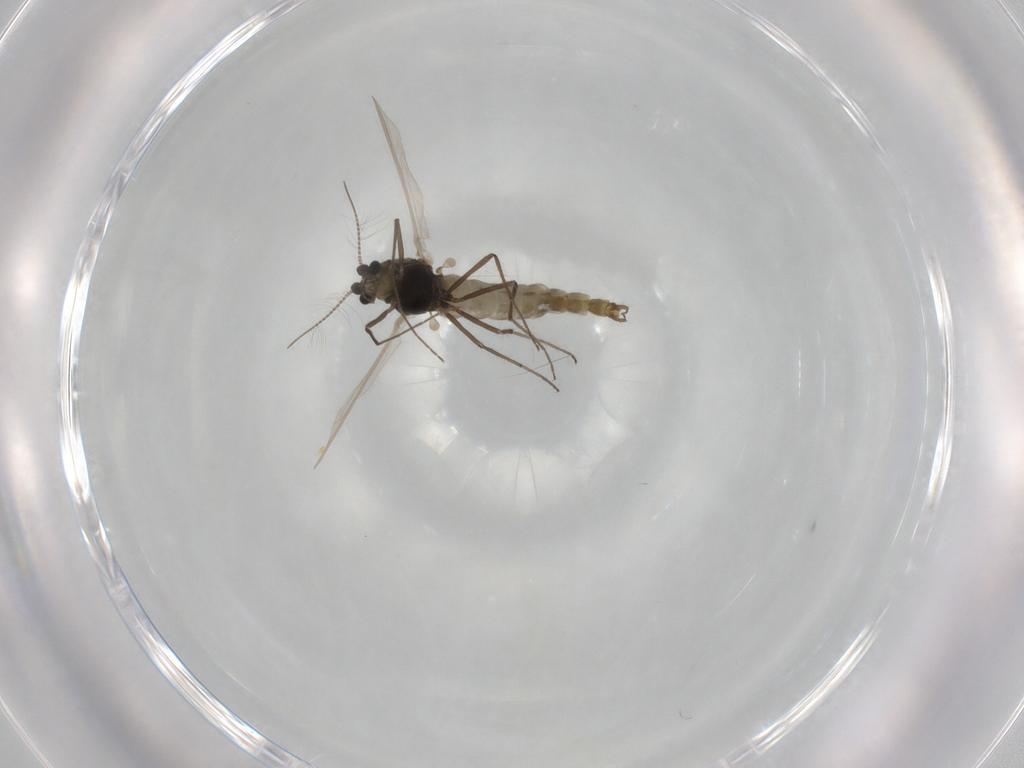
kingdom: Animalia
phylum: Arthropoda
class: Insecta
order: Diptera
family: Chironomidae
